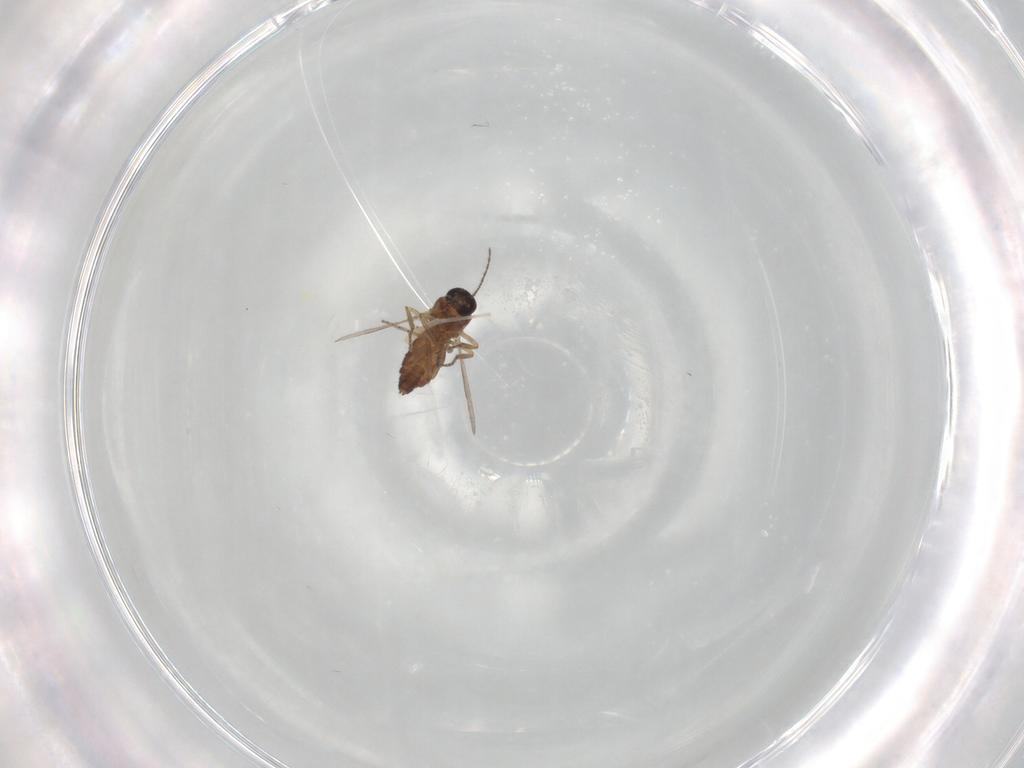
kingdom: Animalia
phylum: Arthropoda
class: Insecta
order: Diptera
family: Chironomidae
